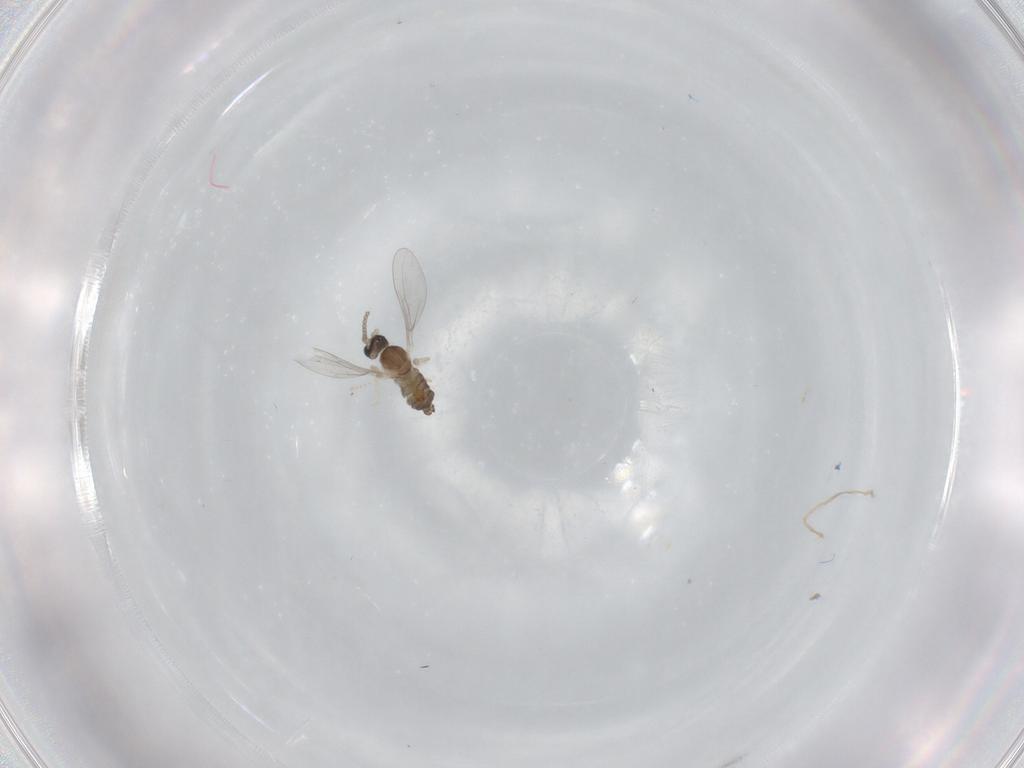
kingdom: Animalia
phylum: Arthropoda
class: Insecta
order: Diptera
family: Cecidomyiidae
